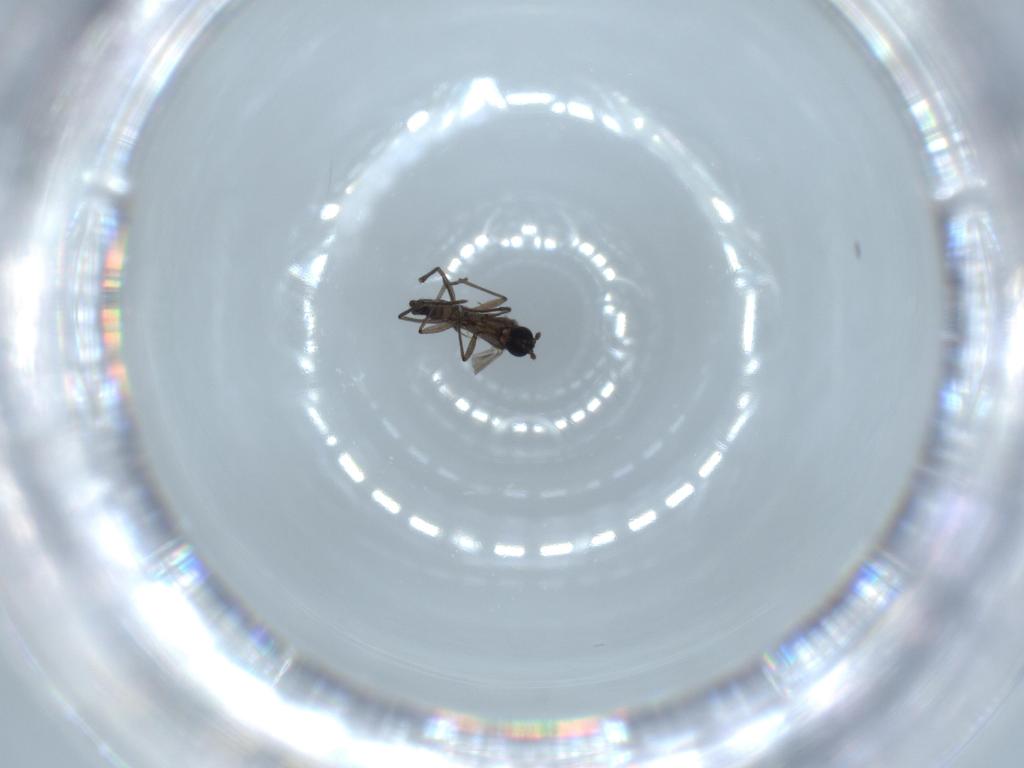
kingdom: Animalia
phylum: Arthropoda
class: Insecta
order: Diptera
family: Sciaridae
